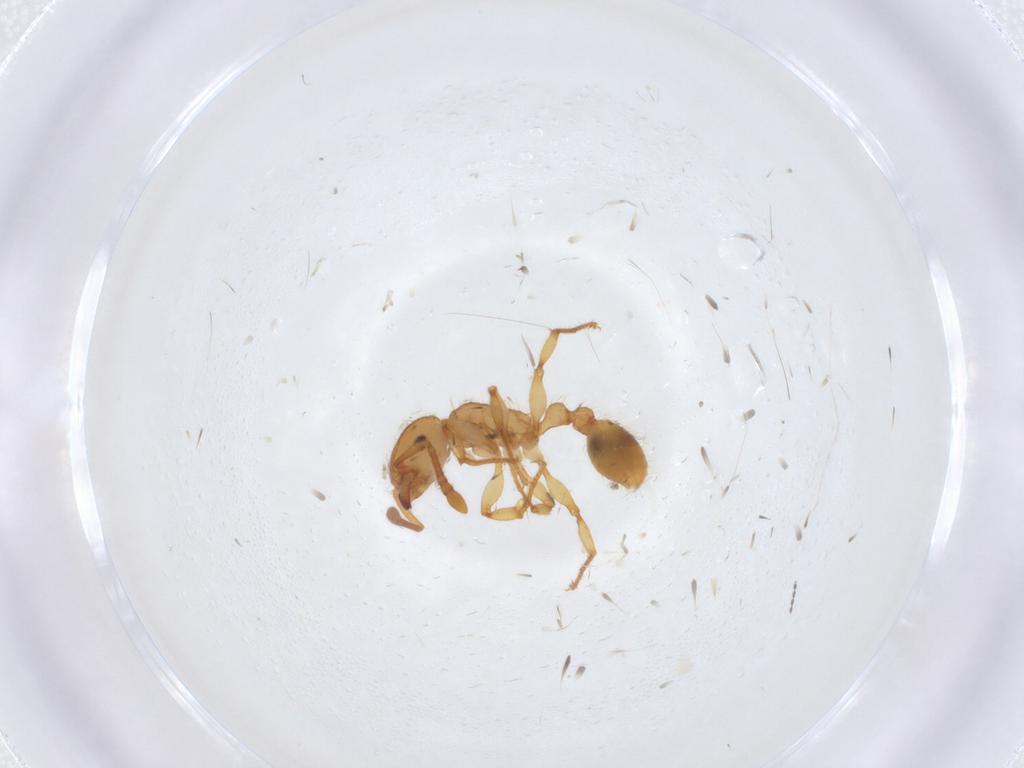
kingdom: Animalia
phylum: Arthropoda
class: Insecta
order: Hymenoptera
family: Formicidae
